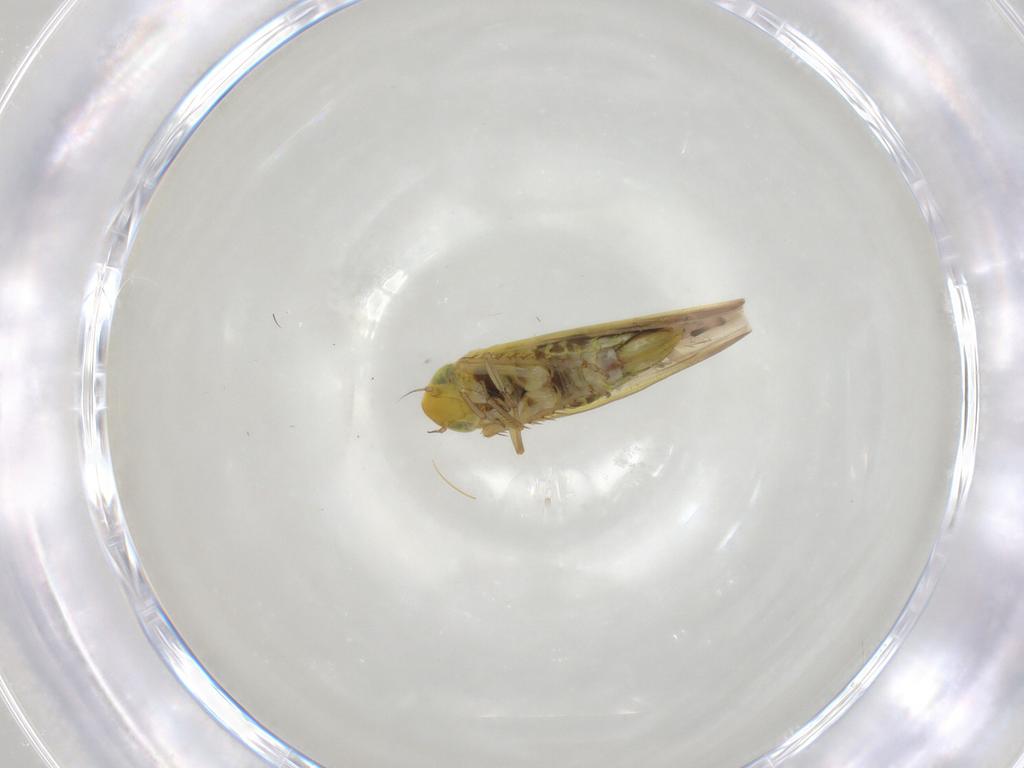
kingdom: Animalia
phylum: Arthropoda
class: Insecta
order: Hemiptera
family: Cicadellidae
